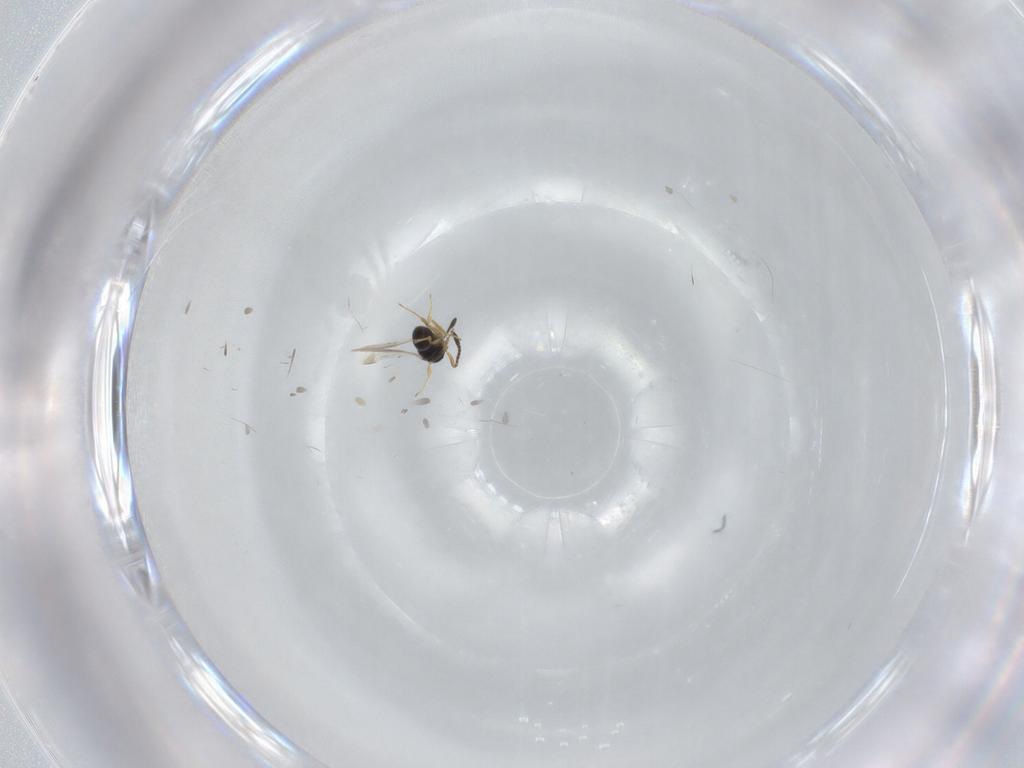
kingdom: Animalia
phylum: Arthropoda
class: Insecta
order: Hymenoptera
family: Scelionidae
